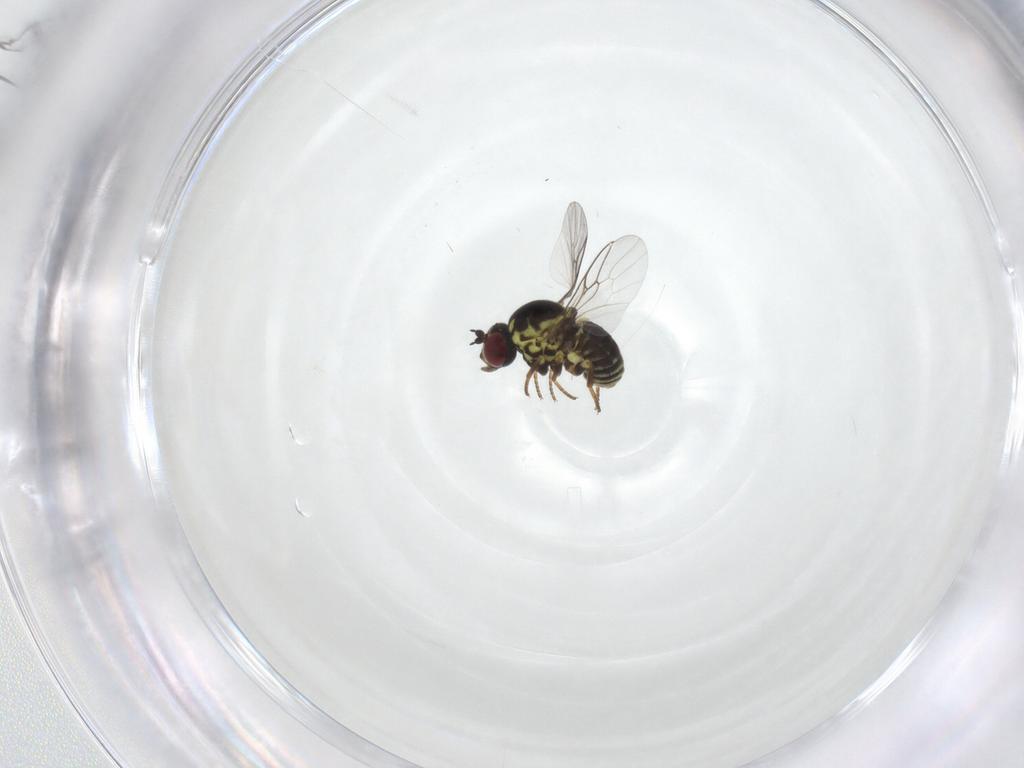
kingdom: Animalia
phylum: Arthropoda
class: Insecta
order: Diptera
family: Mythicomyiidae
